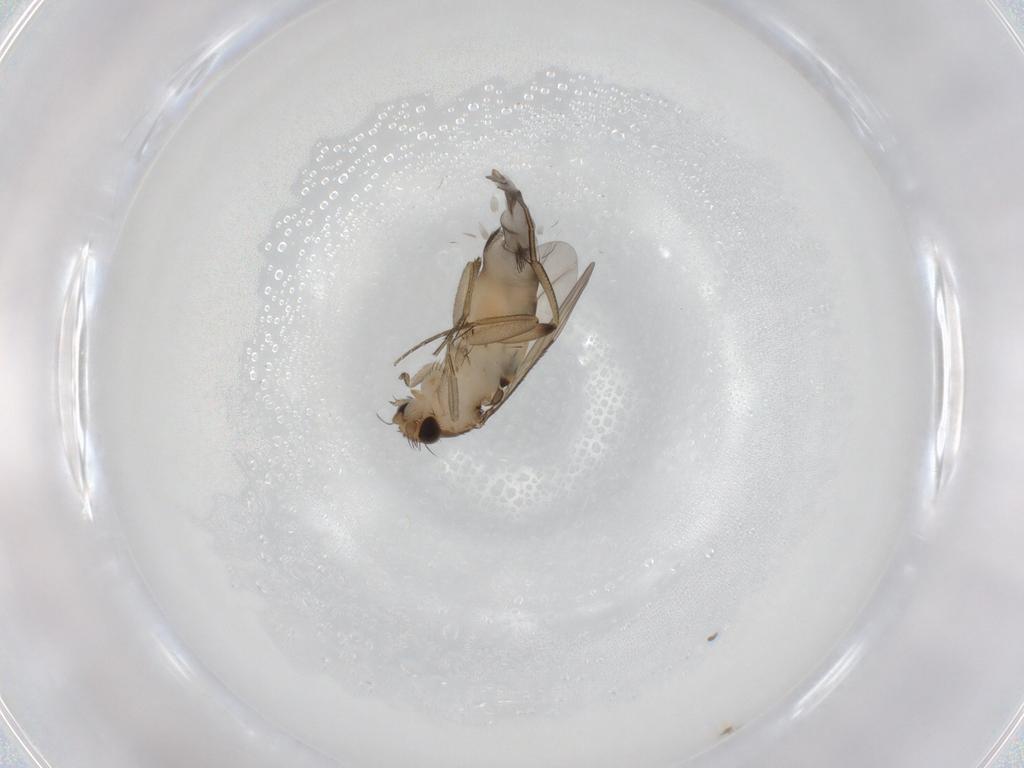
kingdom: Animalia
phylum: Arthropoda
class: Insecta
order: Diptera
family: Phoridae
